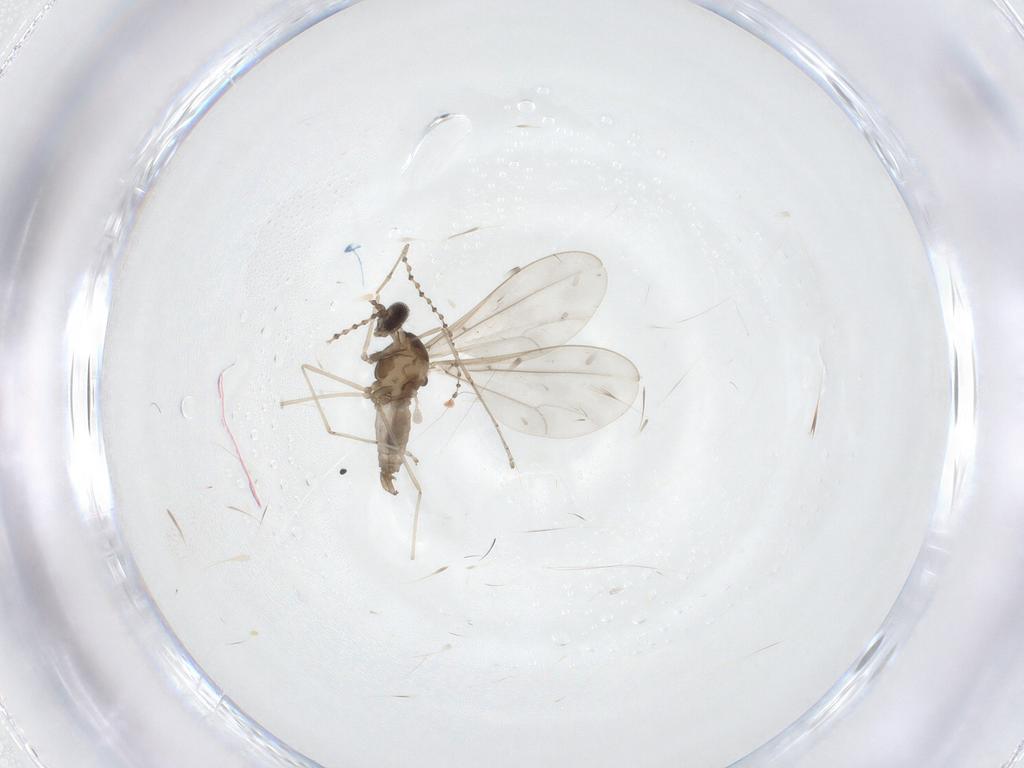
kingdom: Animalia
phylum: Arthropoda
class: Insecta
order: Diptera
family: Cecidomyiidae
